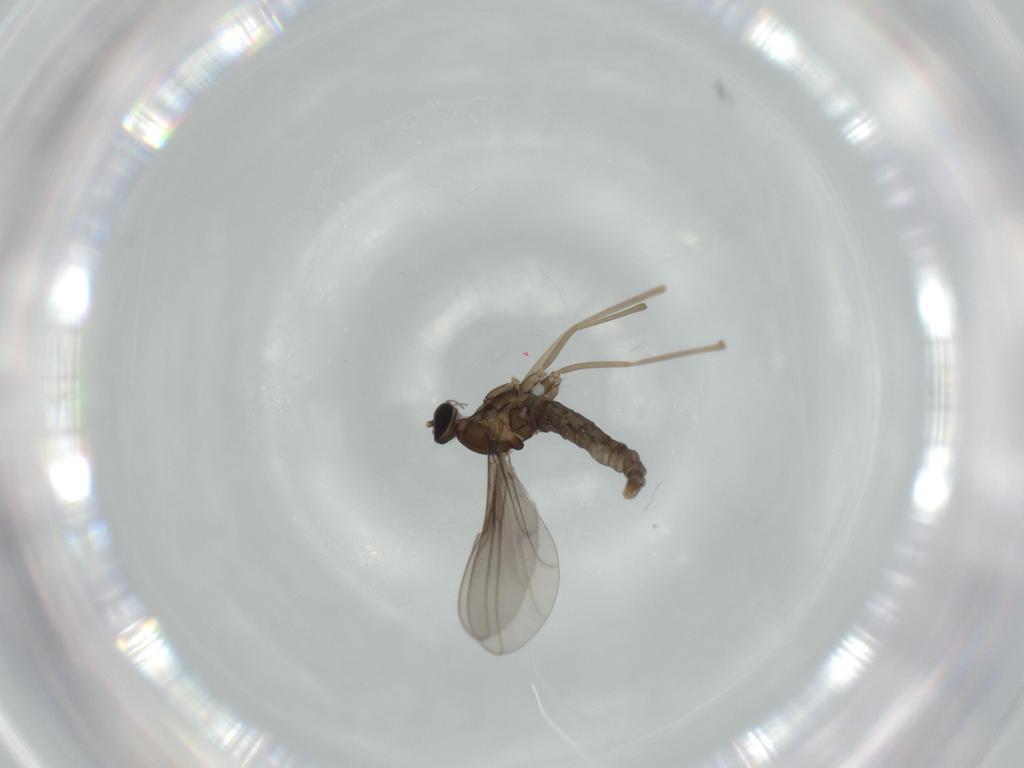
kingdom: Animalia
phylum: Arthropoda
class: Insecta
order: Diptera
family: Cecidomyiidae
